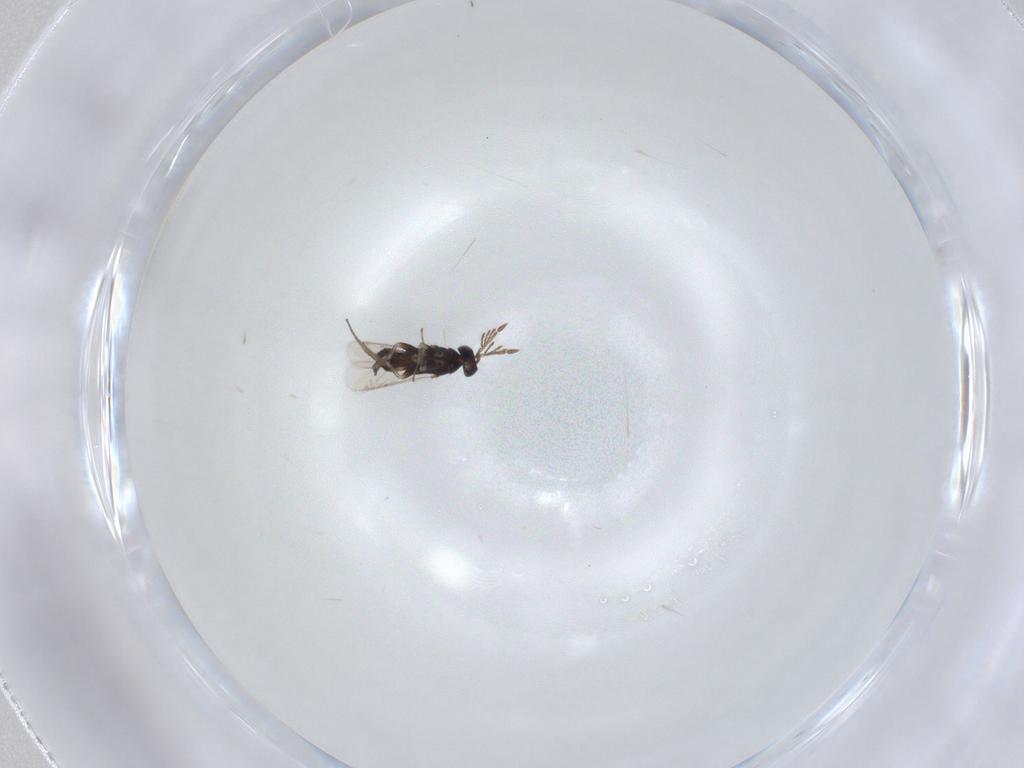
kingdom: Animalia
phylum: Arthropoda
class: Insecta
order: Hymenoptera
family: Eulophidae
